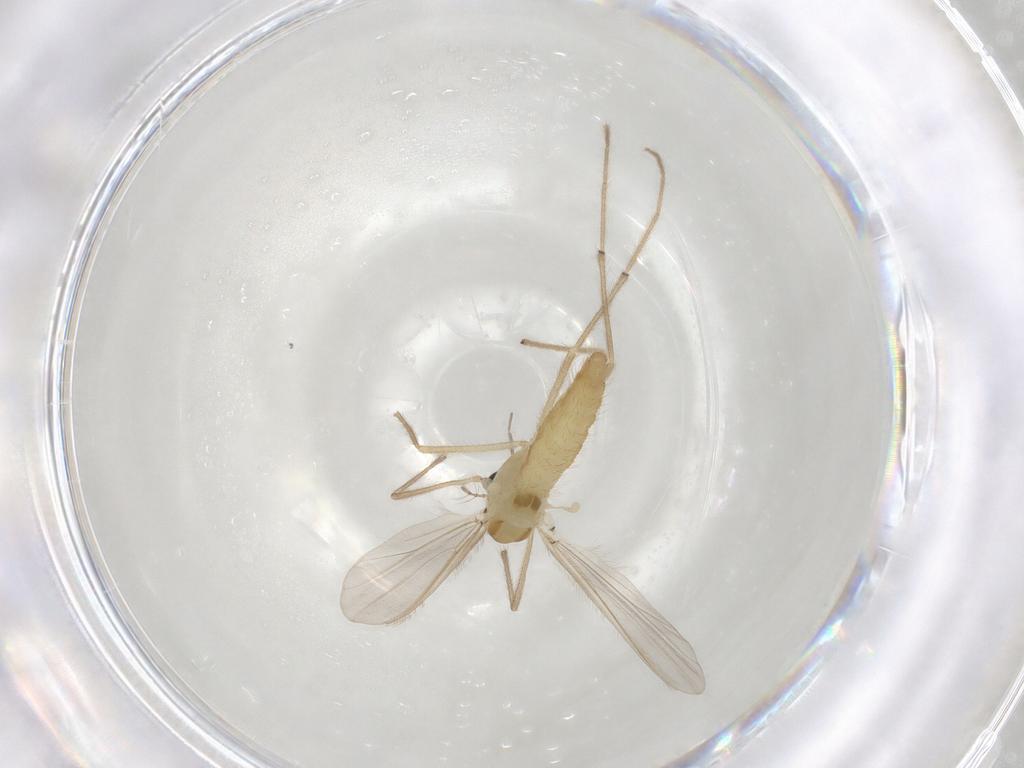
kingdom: Animalia
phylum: Arthropoda
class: Insecta
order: Diptera
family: Chironomidae
